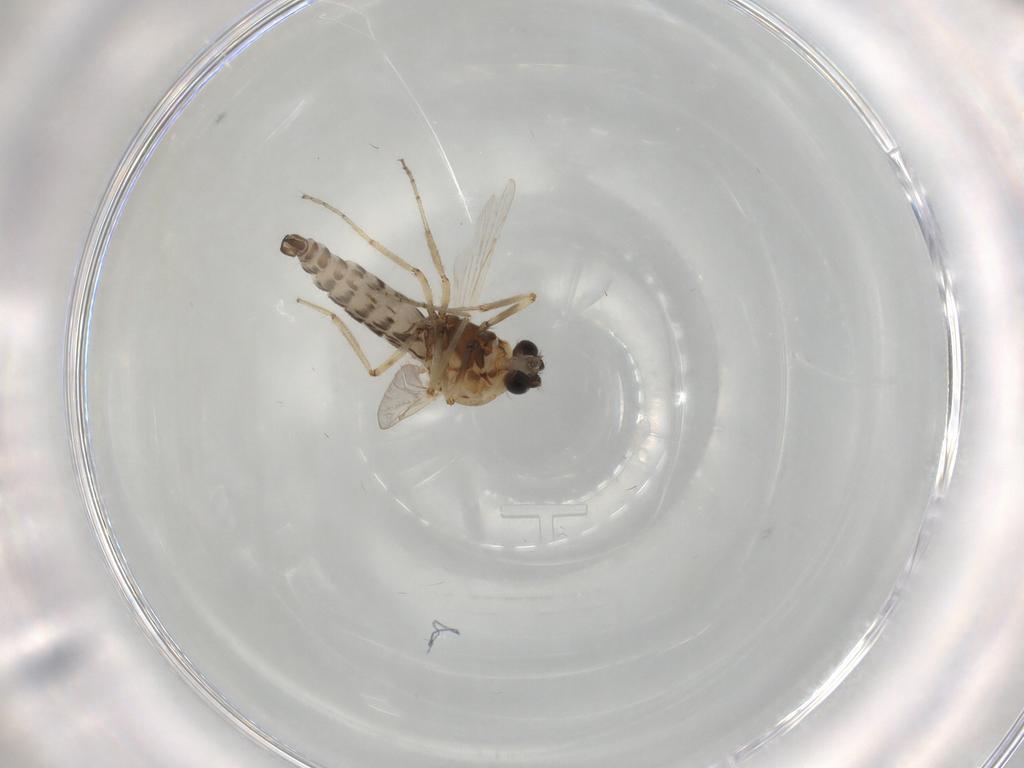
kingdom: Animalia
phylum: Arthropoda
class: Insecta
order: Diptera
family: Ceratopogonidae
